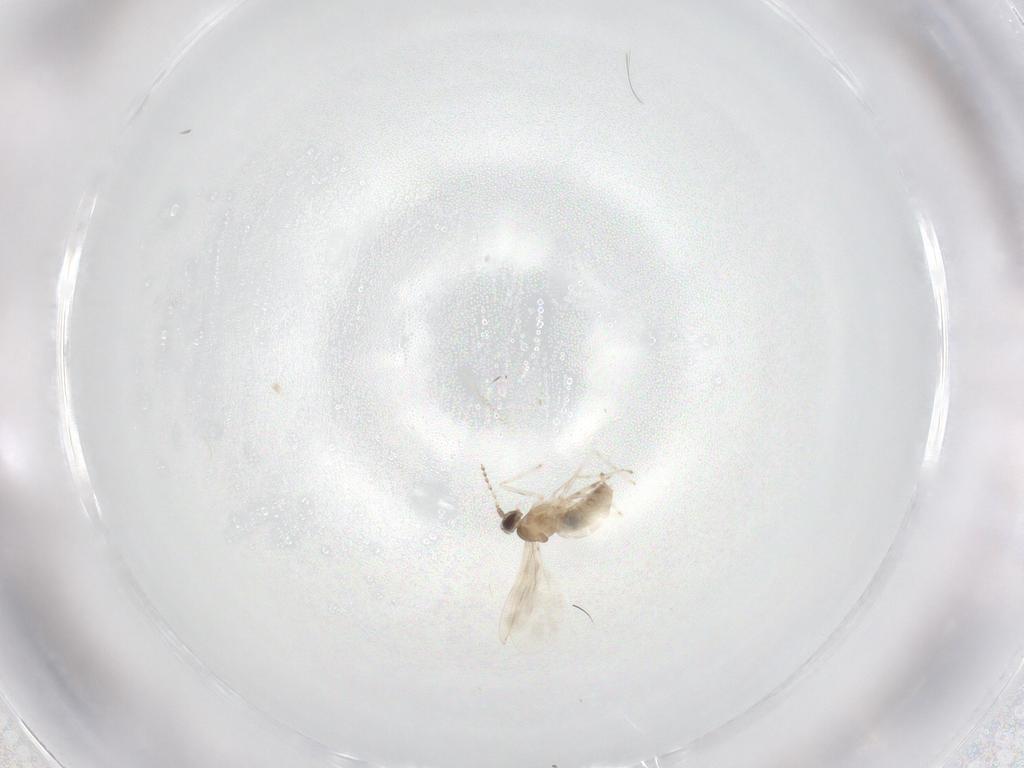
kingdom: Animalia
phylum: Arthropoda
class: Insecta
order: Diptera
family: Cecidomyiidae
